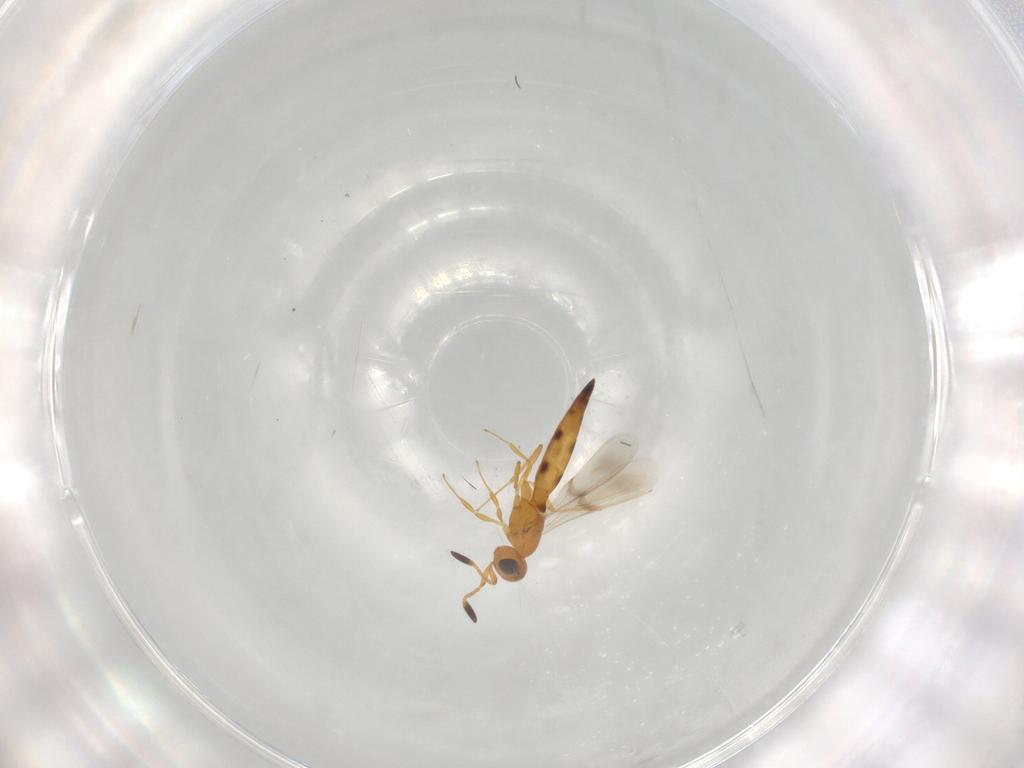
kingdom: Animalia
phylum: Arthropoda
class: Insecta
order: Hymenoptera
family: Scelionidae
